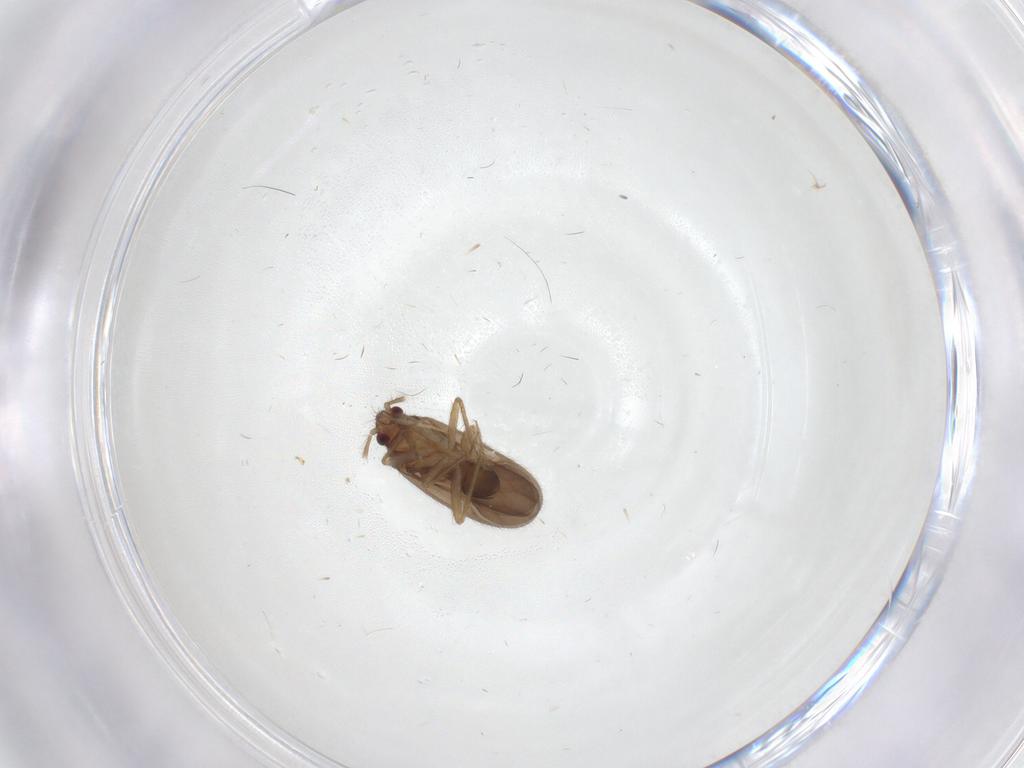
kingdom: Animalia
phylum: Arthropoda
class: Insecta
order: Hemiptera
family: Ceratocombidae
